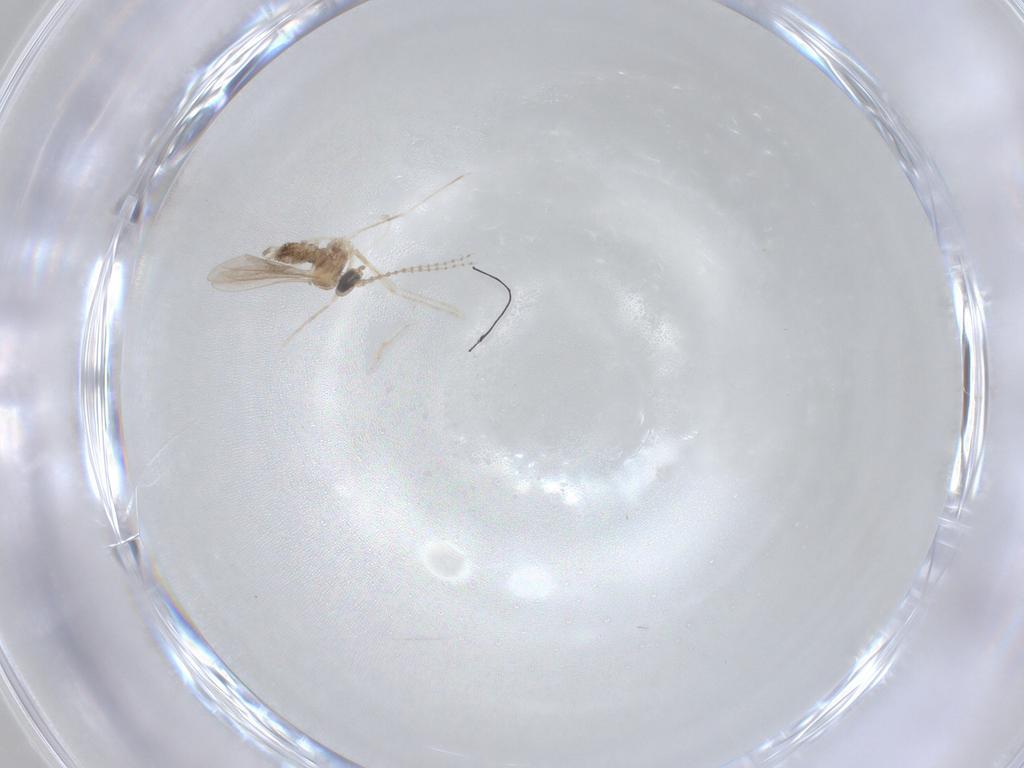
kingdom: Animalia
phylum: Arthropoda
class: Insecta
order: Diptera
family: Cecidomyiidae
